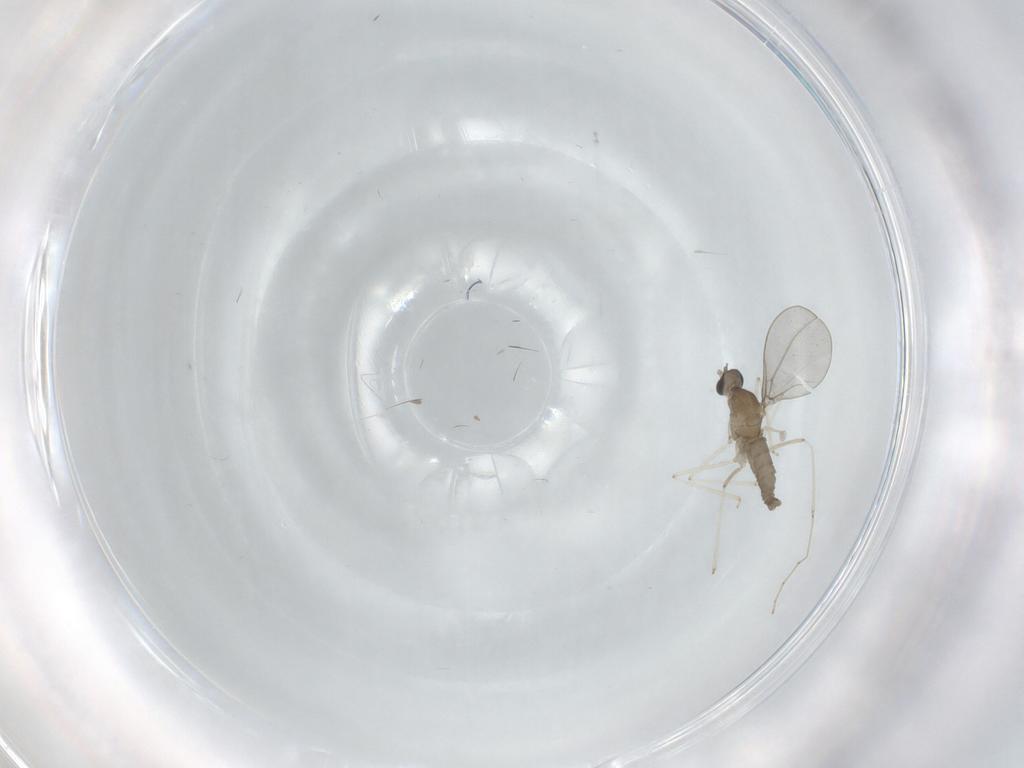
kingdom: Animalia
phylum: Arthropoda
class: Insecta
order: Diptera
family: Cecidomyiidae
